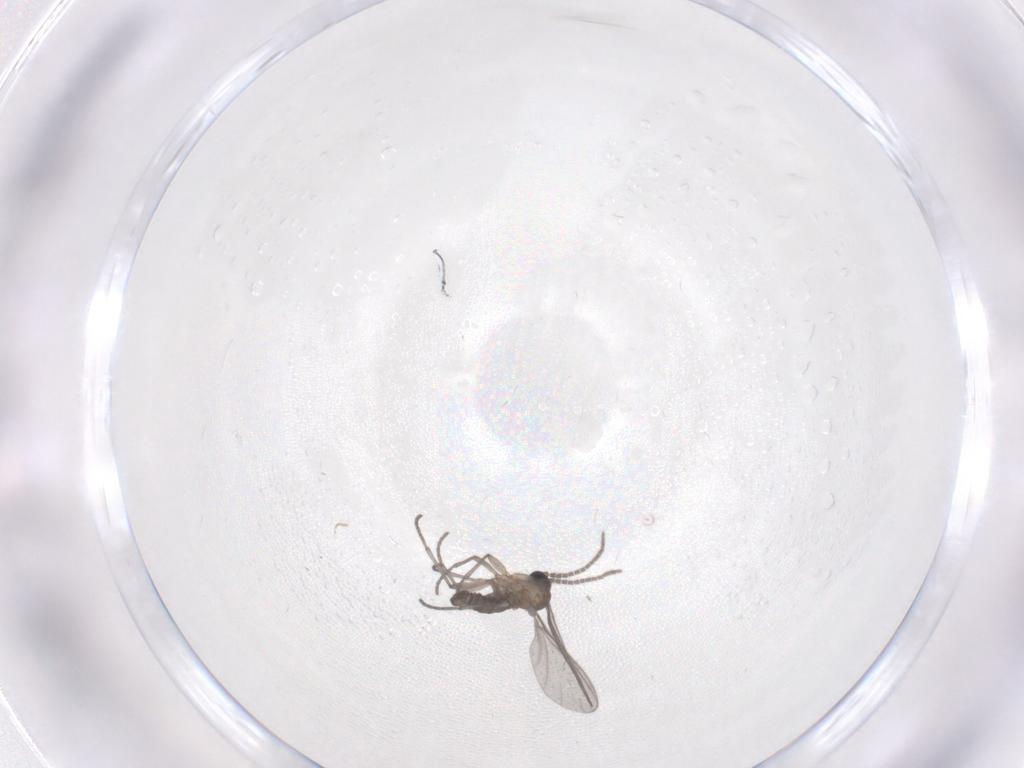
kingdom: Animalia
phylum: Arthropoda
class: Insecta
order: Diptera
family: Sciaridae
